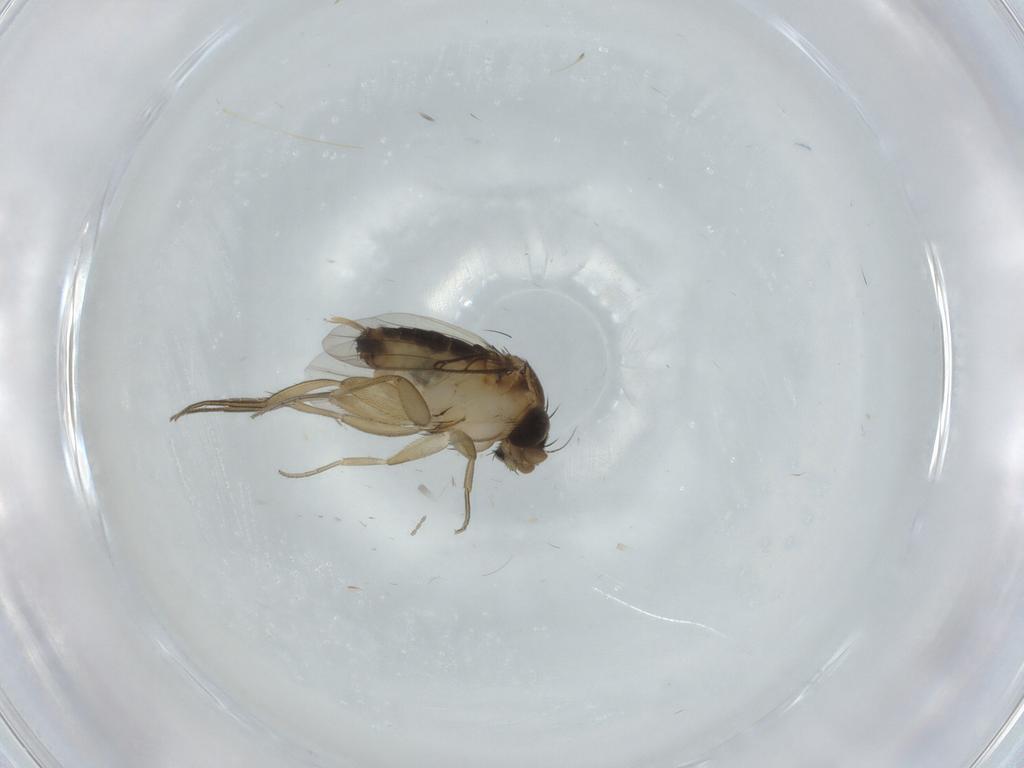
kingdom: Animalia
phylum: Arthropoda
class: Insecta
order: Diptera
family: Phoridae
